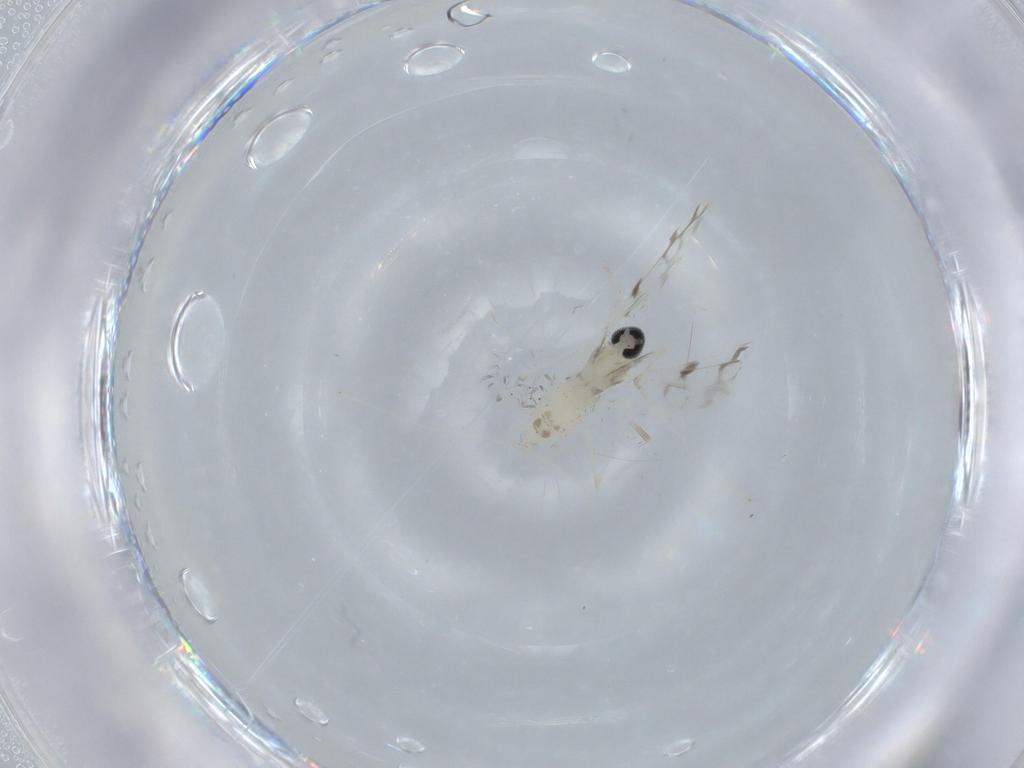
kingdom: Animalia
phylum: Arthropoda
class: Insecta
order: Diptera
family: Cecidomyiidae
